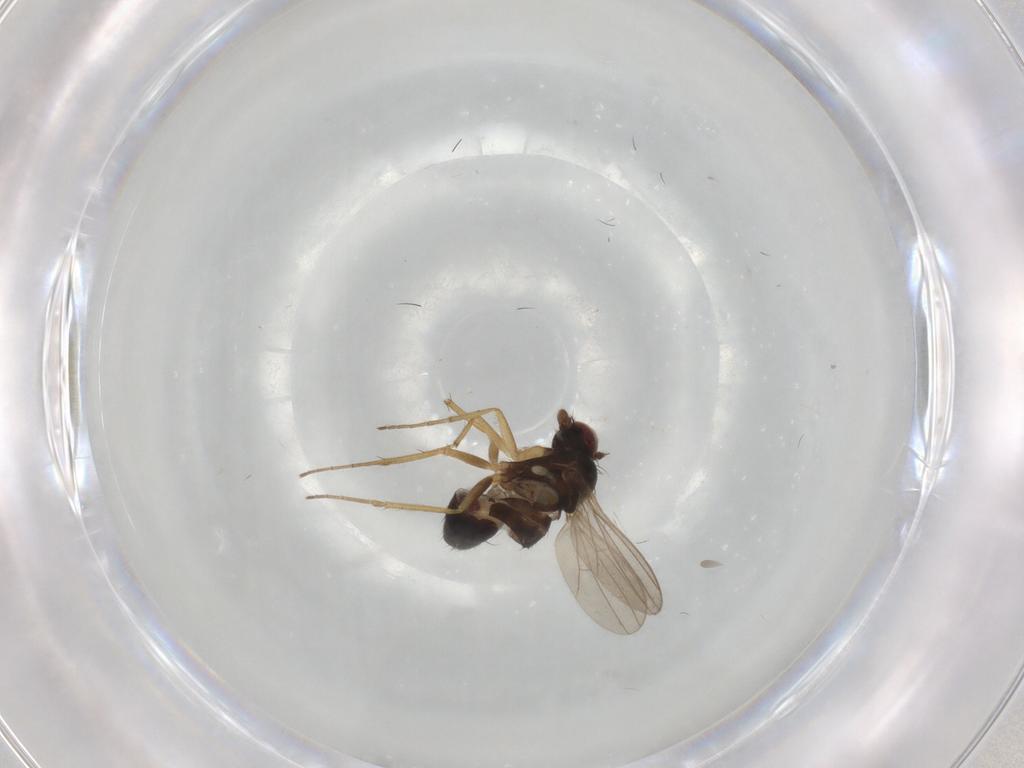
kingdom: Animalia
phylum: Arthropoda
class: Insecta
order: Diptera
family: Dolichopodidae
